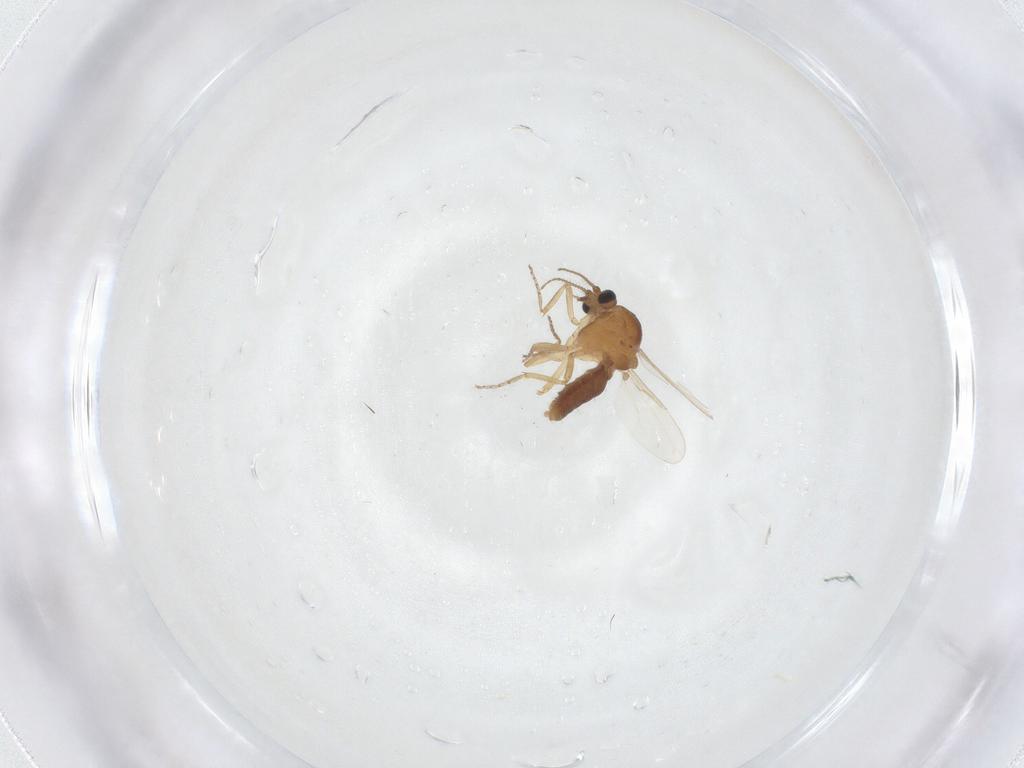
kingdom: Animalia
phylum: Arthropoda
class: Insecta
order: Diptera
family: Ceratopogonidae
